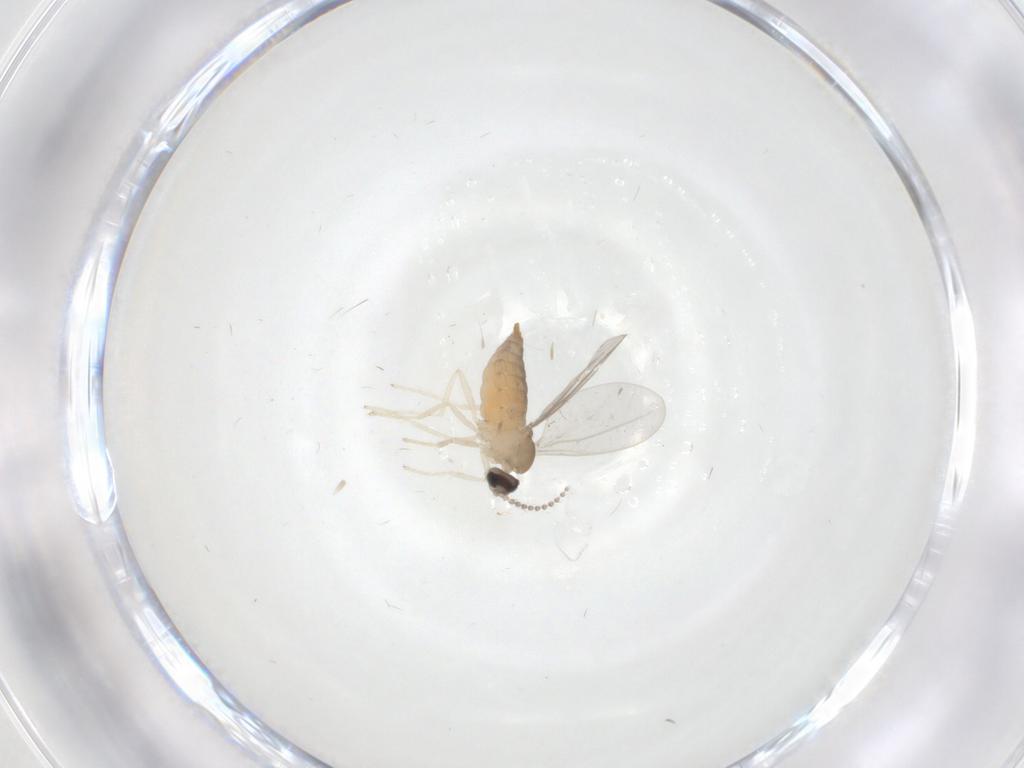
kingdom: Animalia
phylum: Arthropoda
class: Insecta
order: Diptera
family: Cecidomyiidae
